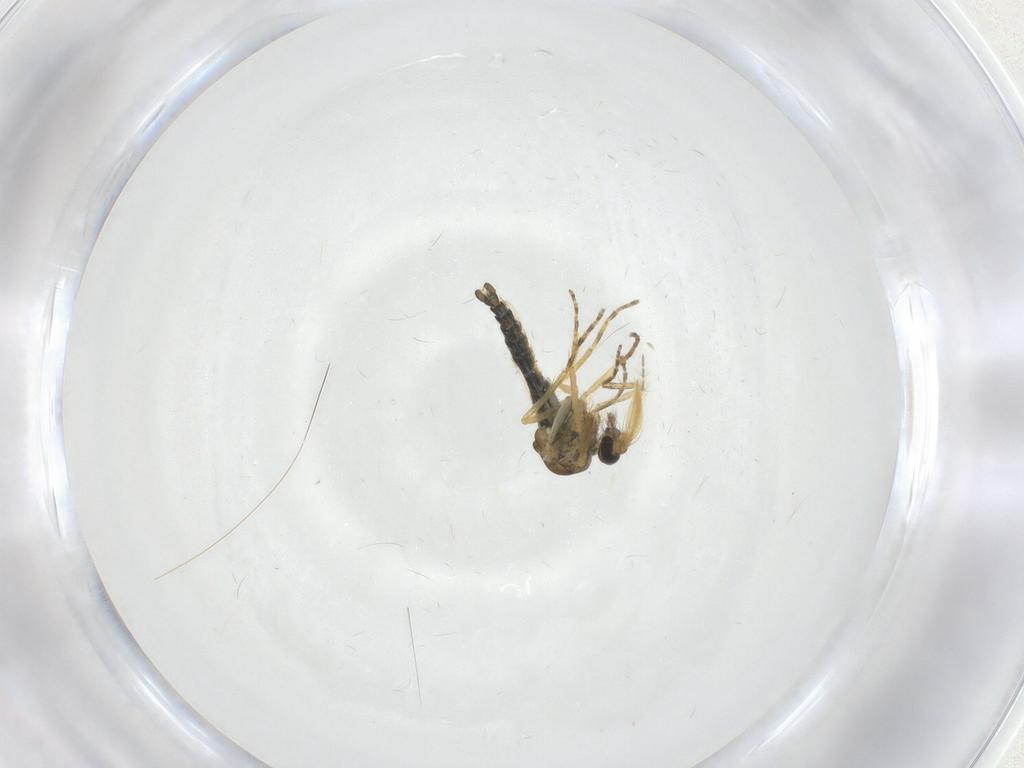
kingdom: Animalia
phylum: Arthropoda
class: Insecta
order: Diptera
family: Ceratopogonidae
